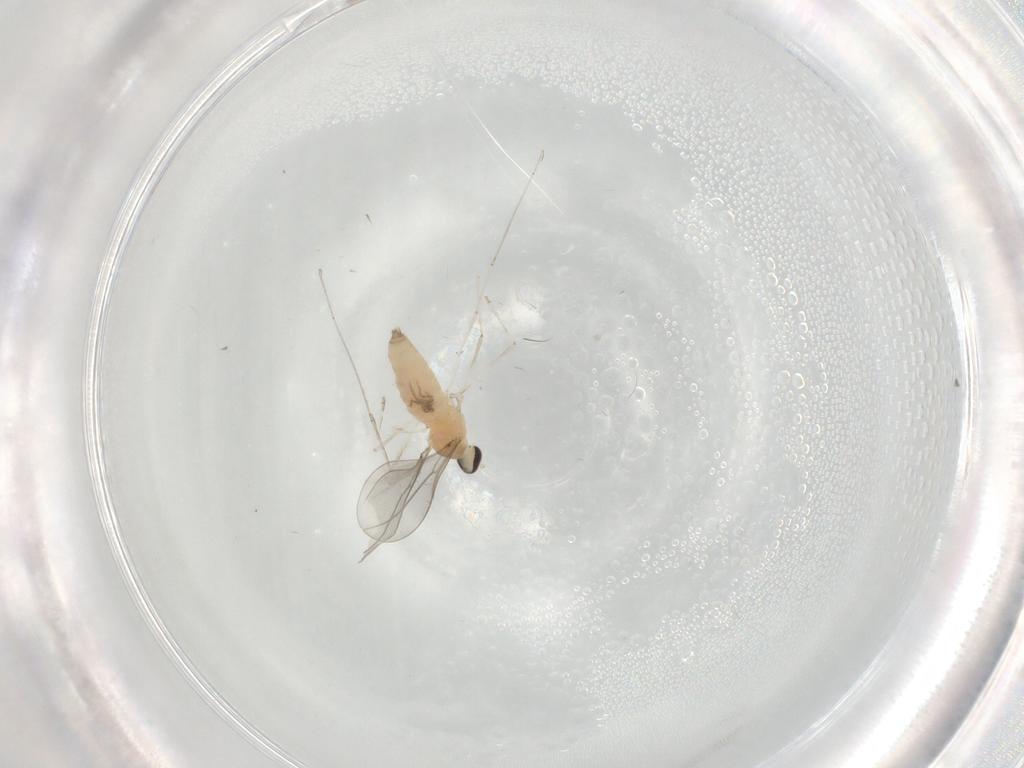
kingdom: Animalia
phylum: Arthropoda
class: Insecta
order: Diptera
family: Cecidomyiidae
